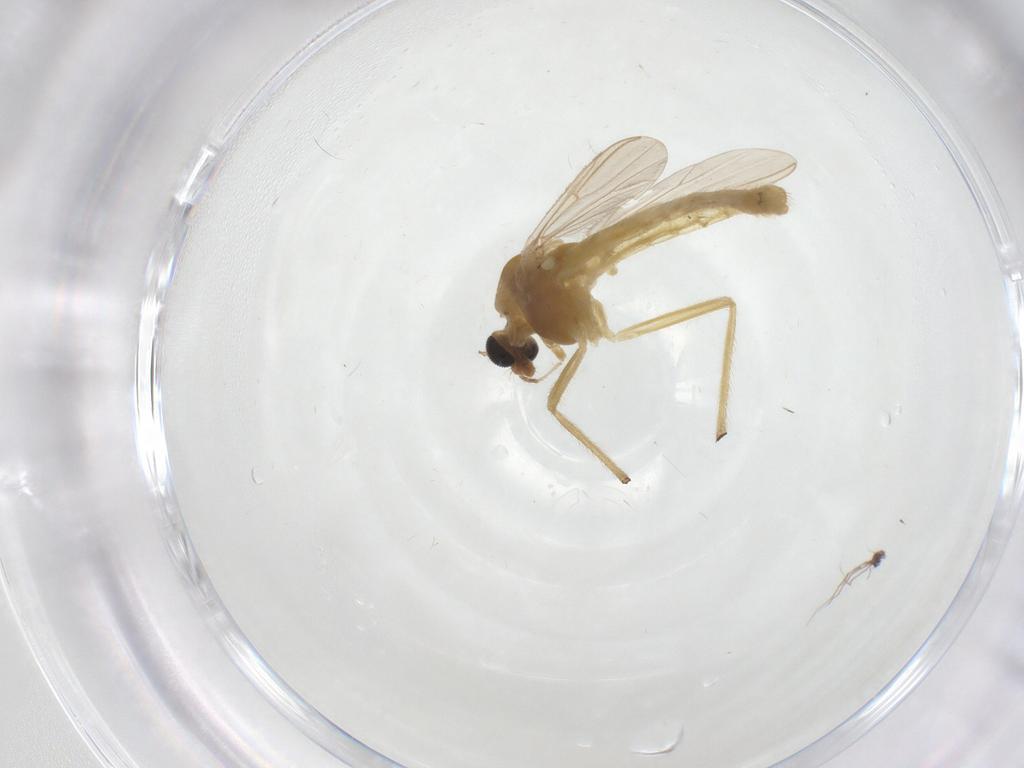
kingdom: Animalia
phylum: Arthropoda
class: Insecta
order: Diptera
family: Chironomidae
